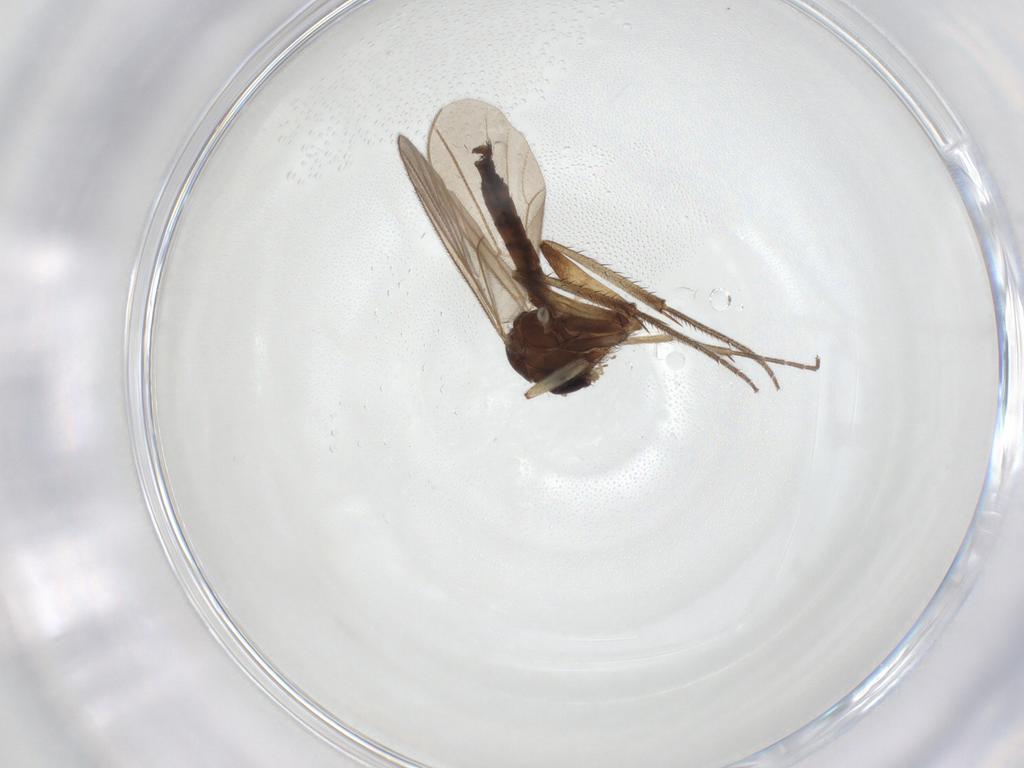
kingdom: Animalia
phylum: Arthropoda
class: Insecta
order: Diptera
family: Mycetophilidae
